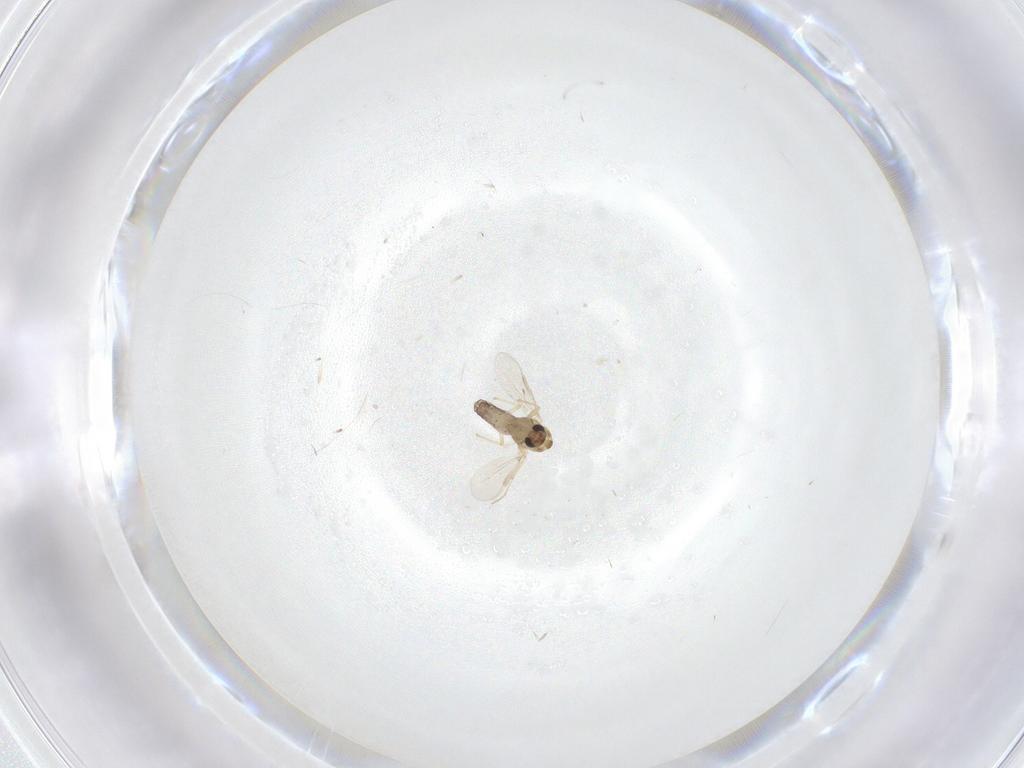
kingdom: Animalia
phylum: Arthropoda
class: Insecta
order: Diptera
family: Chironomidae
